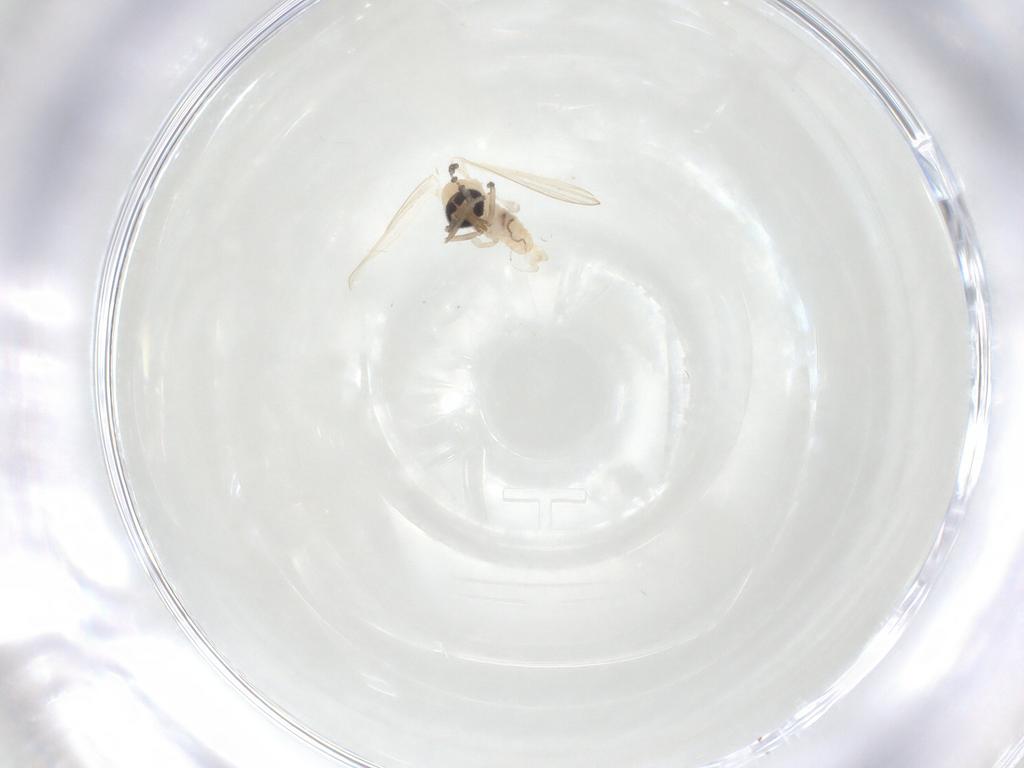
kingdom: Animalia
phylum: Arthropoda
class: Insecta
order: Diptera
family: Psychodidae
